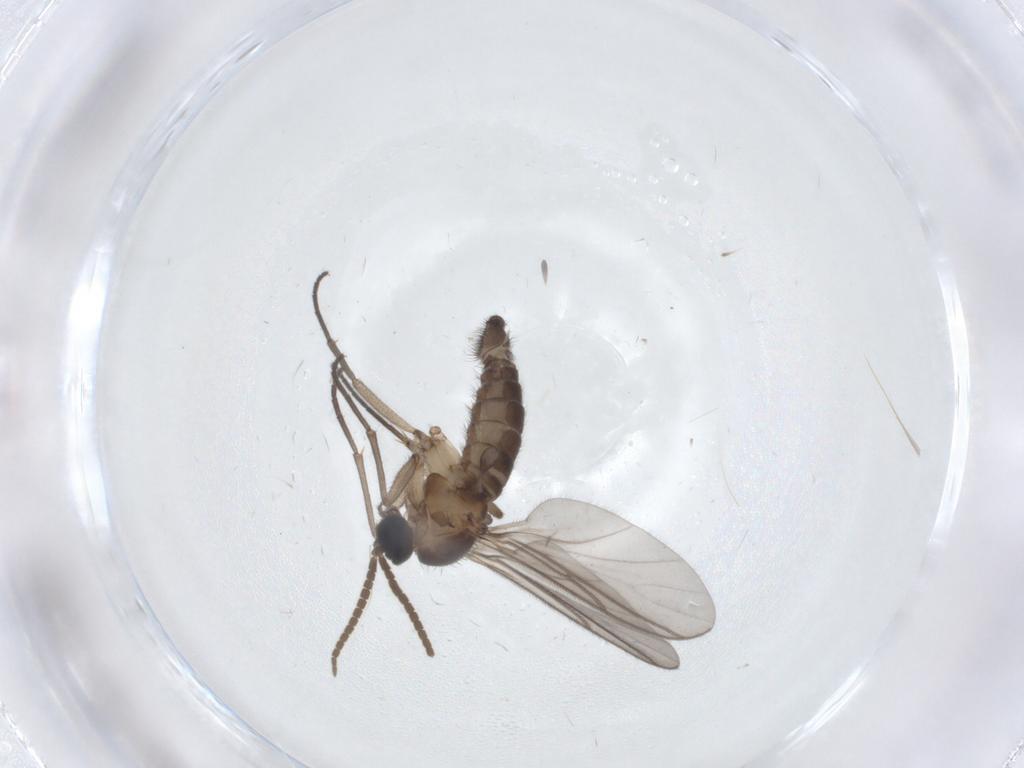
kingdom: Animalia
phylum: Arthropoda
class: Insecta
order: Diptera
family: Cecidomyiidae
